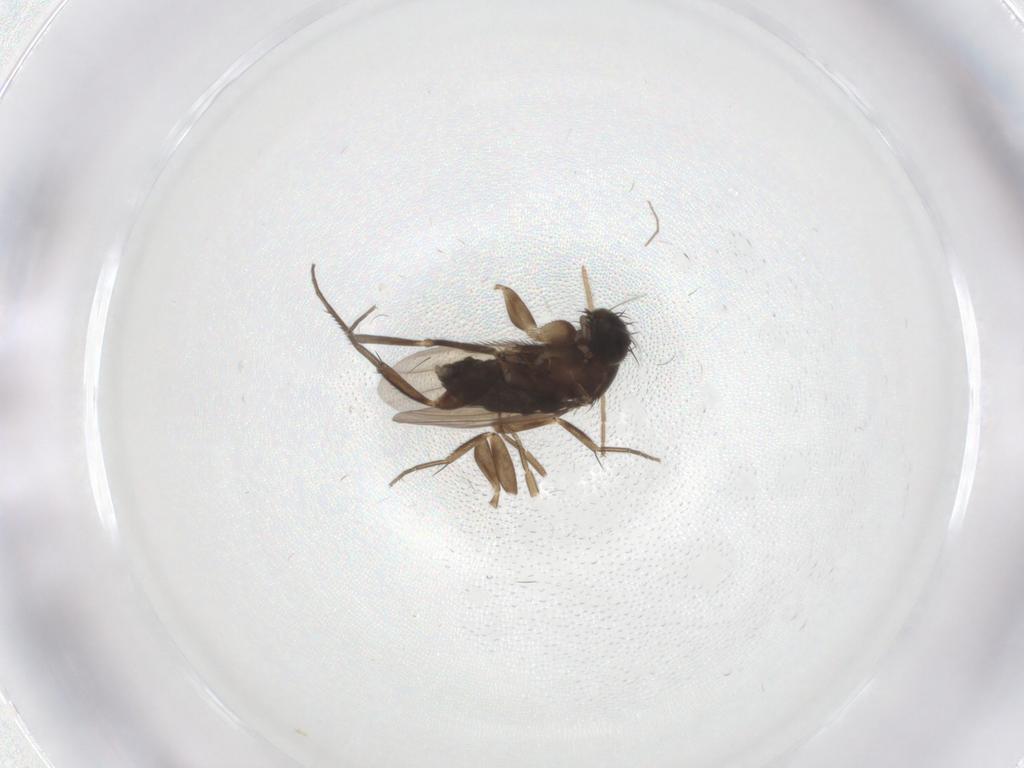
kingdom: Animalia
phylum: Arthropoda
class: Insecta
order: Diptera
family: Phoridae
